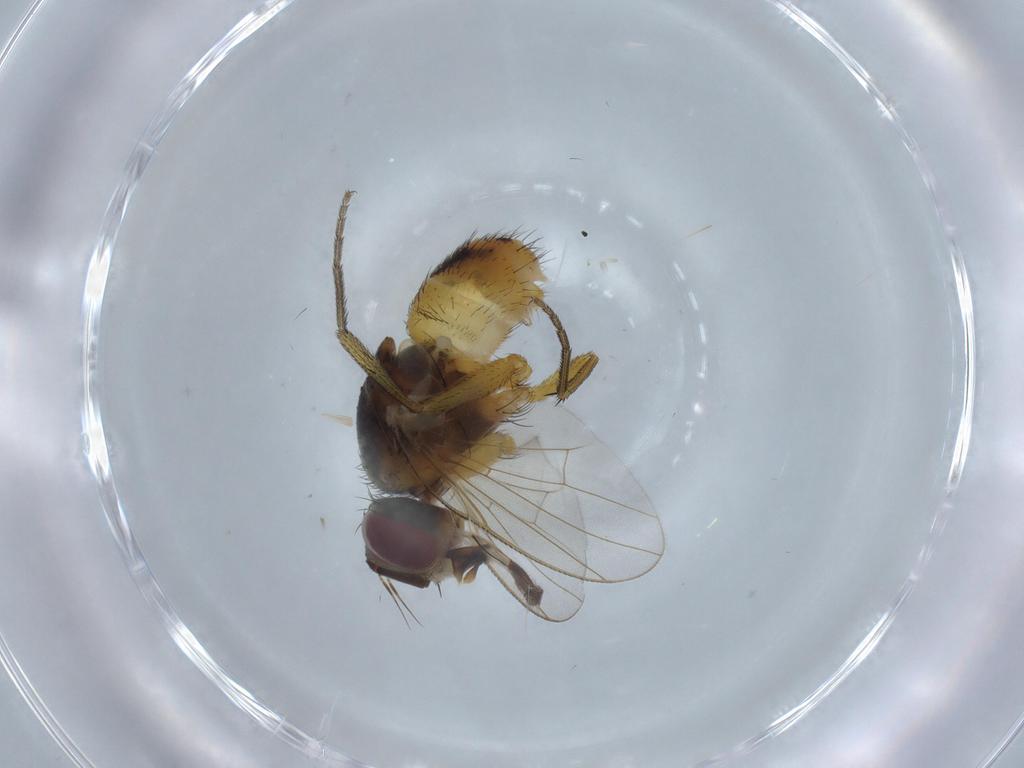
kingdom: Animalia
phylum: Arthropoda
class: Insecta
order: Diptera
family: Muscidae
